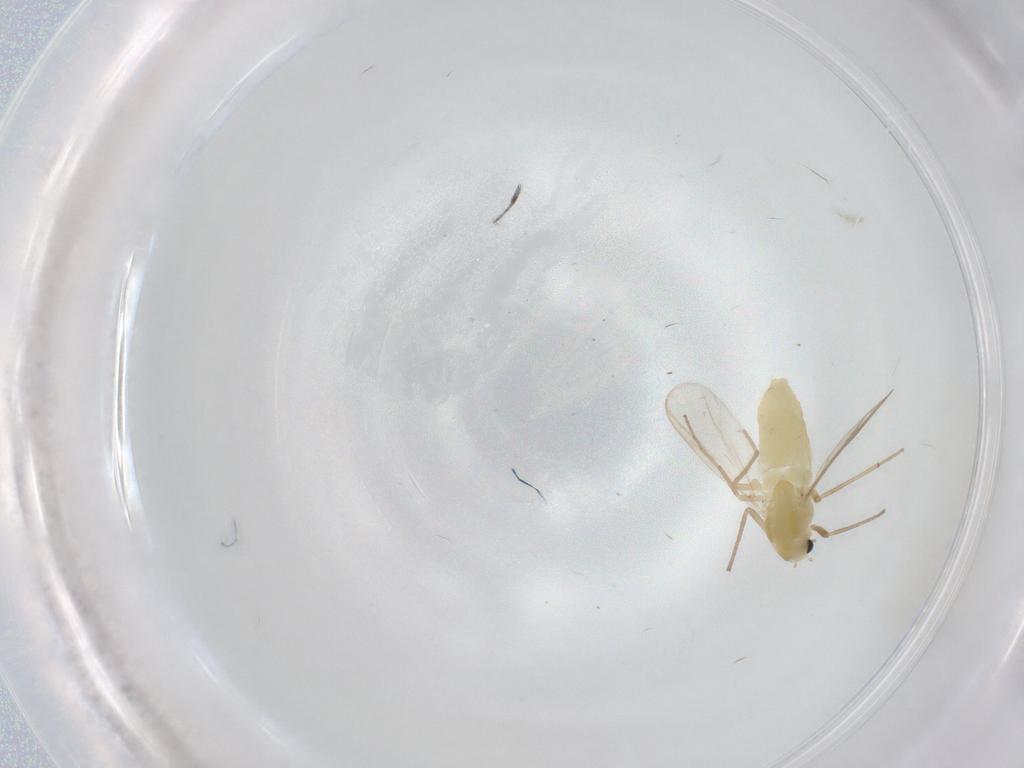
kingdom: Animalia
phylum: Arthropoda
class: Insecta
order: Diptera
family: Chironomidae
